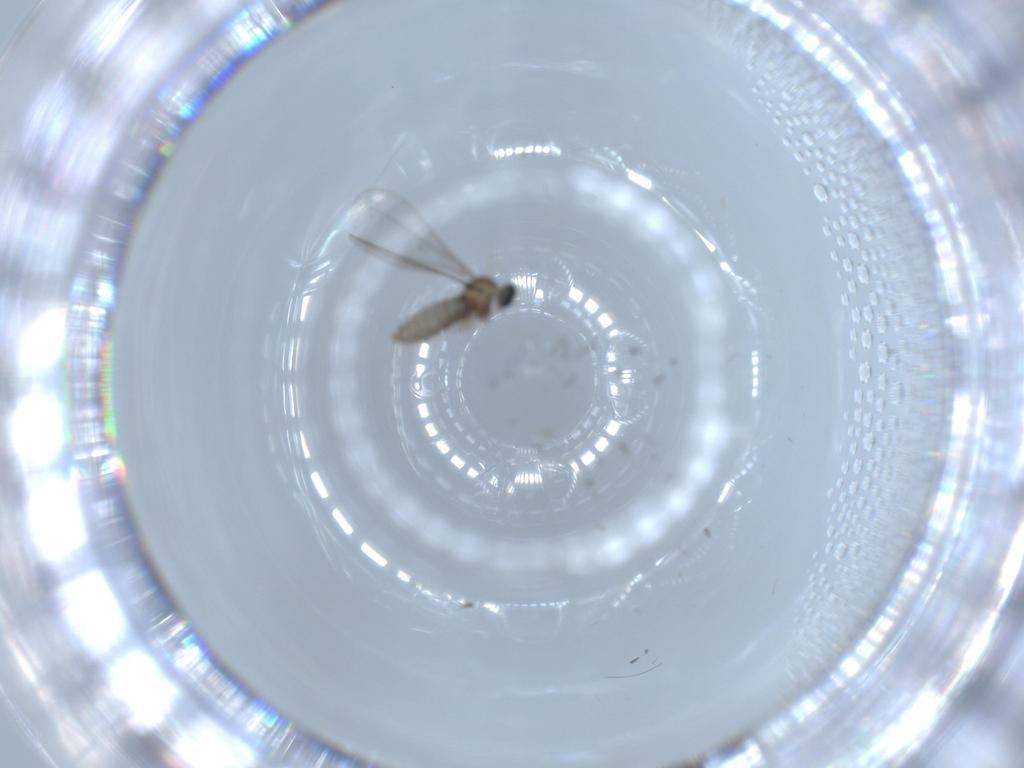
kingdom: Animalia
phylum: Arthropoda
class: Insecta
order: Diptera
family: Cecidomyiidae
